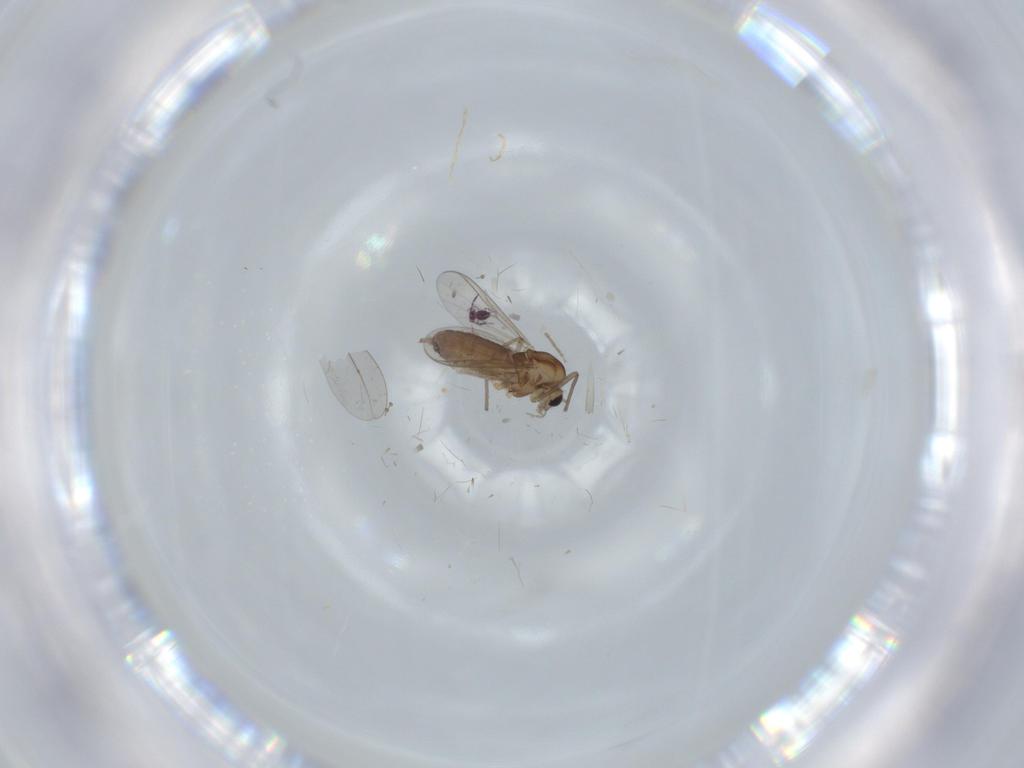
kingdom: Animalia
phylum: Arthropoda
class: Insecta
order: Diptera
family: Chironomidae
